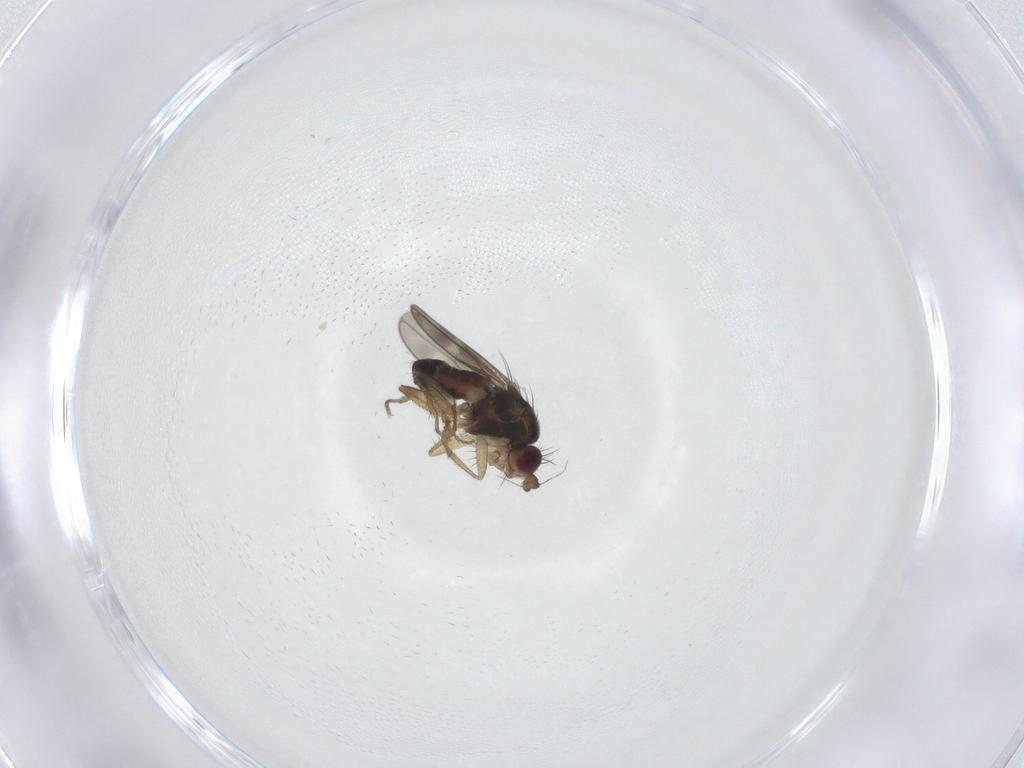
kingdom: Animalia
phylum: Arthropoda
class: Insecta
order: Diptera
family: Sphaeroceridae
